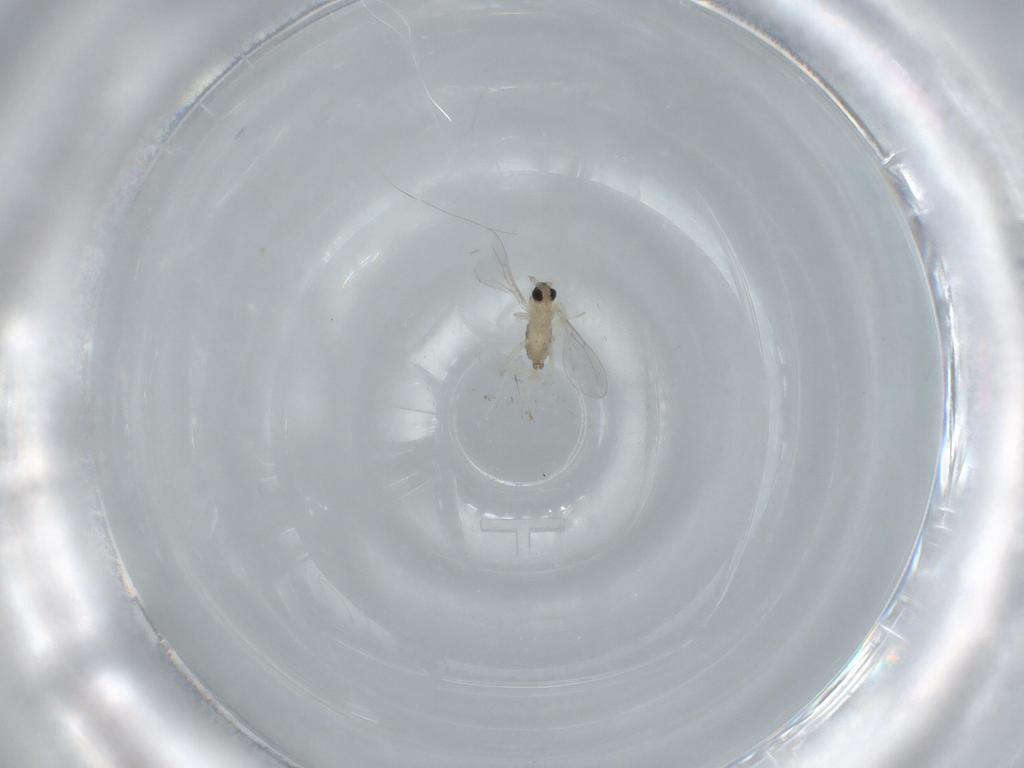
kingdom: Animalia
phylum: Arthropoda
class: Insecta
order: Diptera
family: Cecidomyiidae
